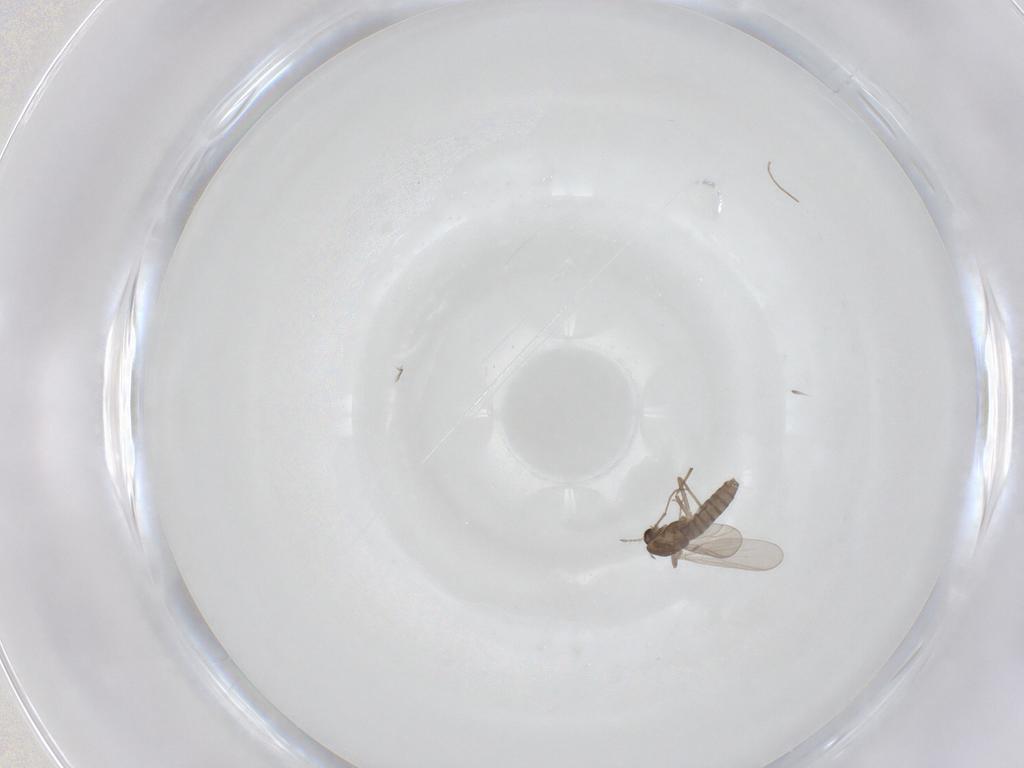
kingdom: Animalia
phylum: Arthropoda
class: Insecta
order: Diptera
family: Chironomidae
